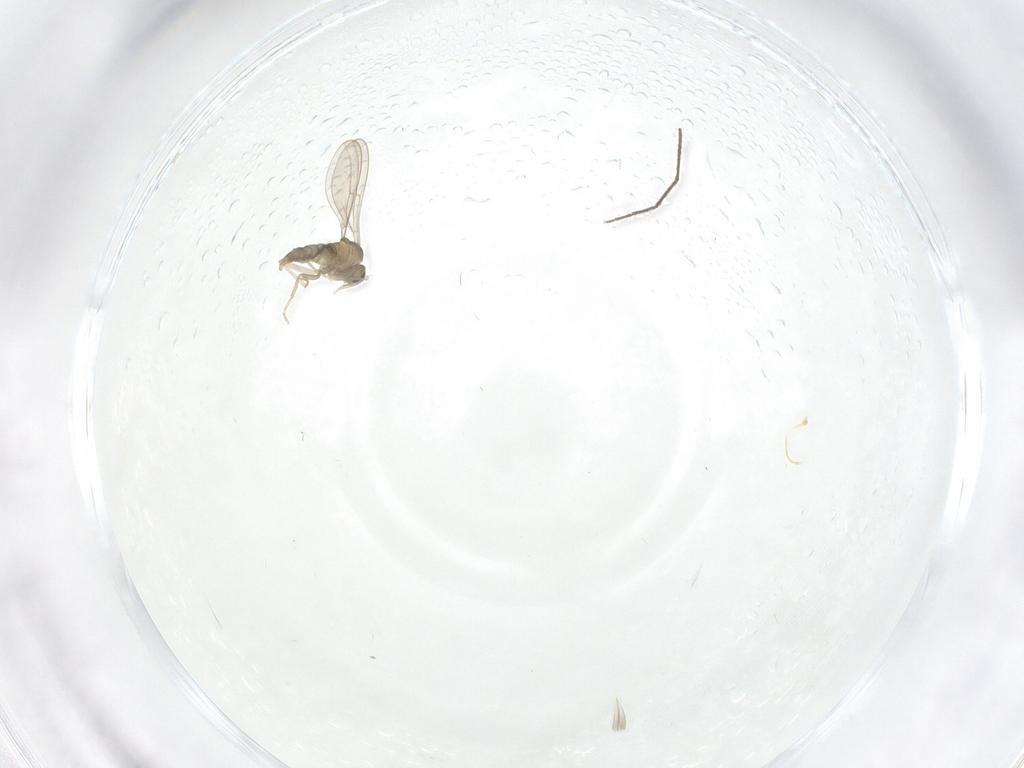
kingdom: Animalia
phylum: Arthropoda
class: Insecta
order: Diptera
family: Cecidomyiidae
